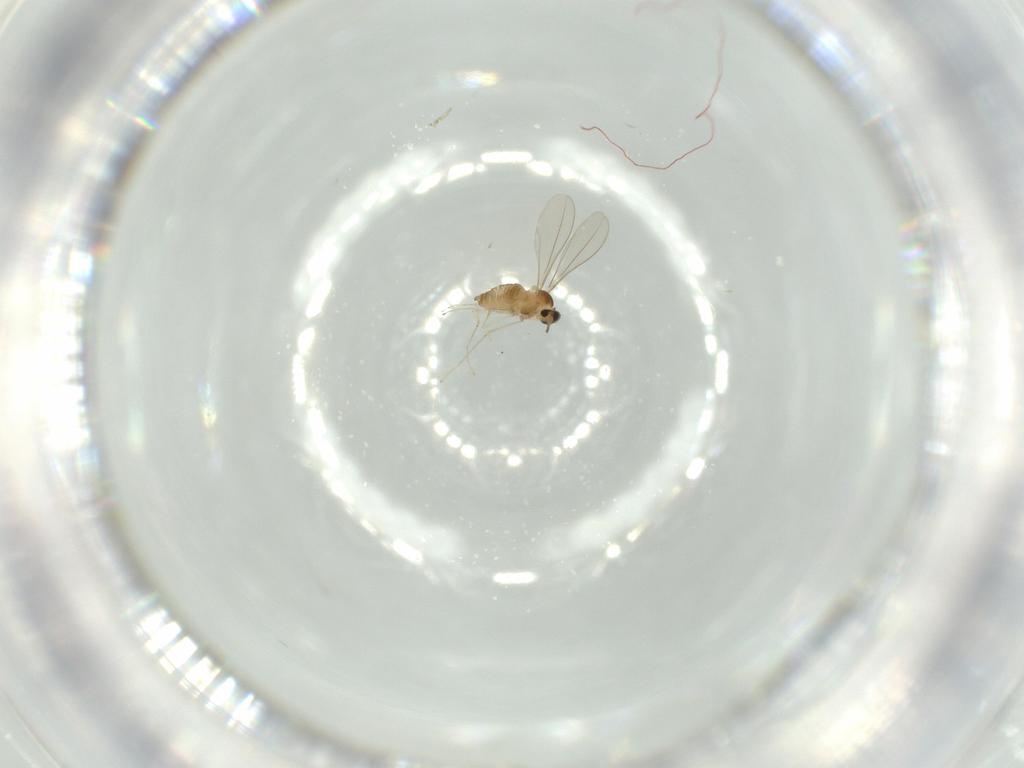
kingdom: Animalia
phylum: Arthropoda
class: Insecta
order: Diptera
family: Cecidomyiidae
